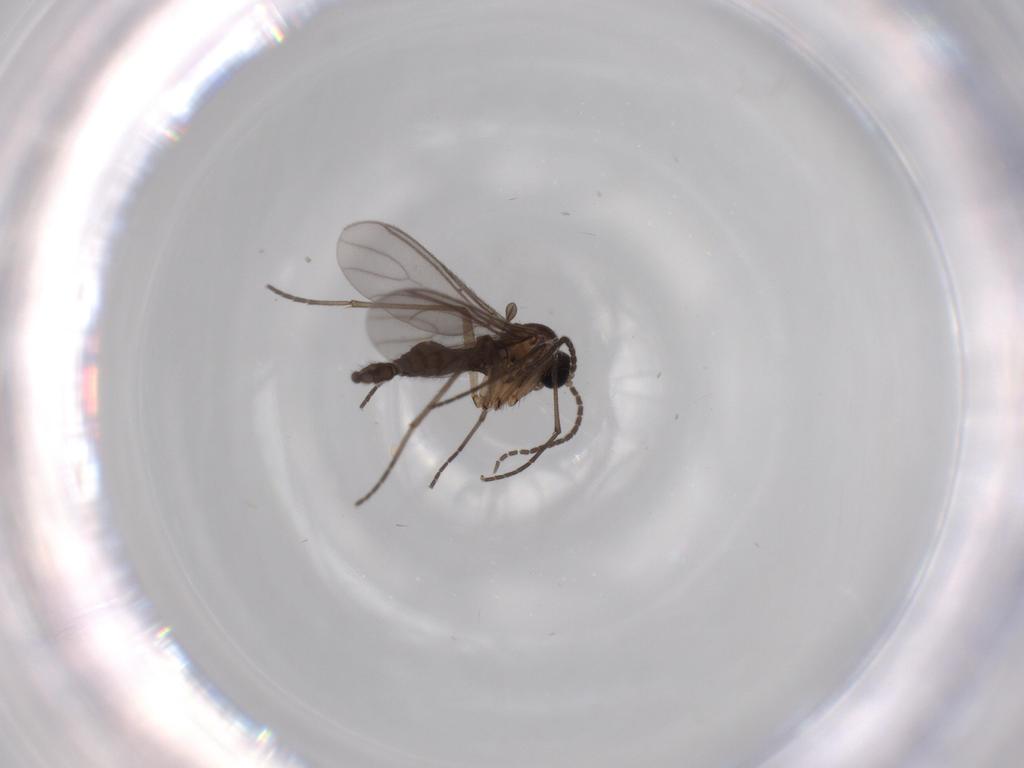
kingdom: Animalia
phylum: Arthropoda
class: Insecta
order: Diptera
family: Sciaridae
